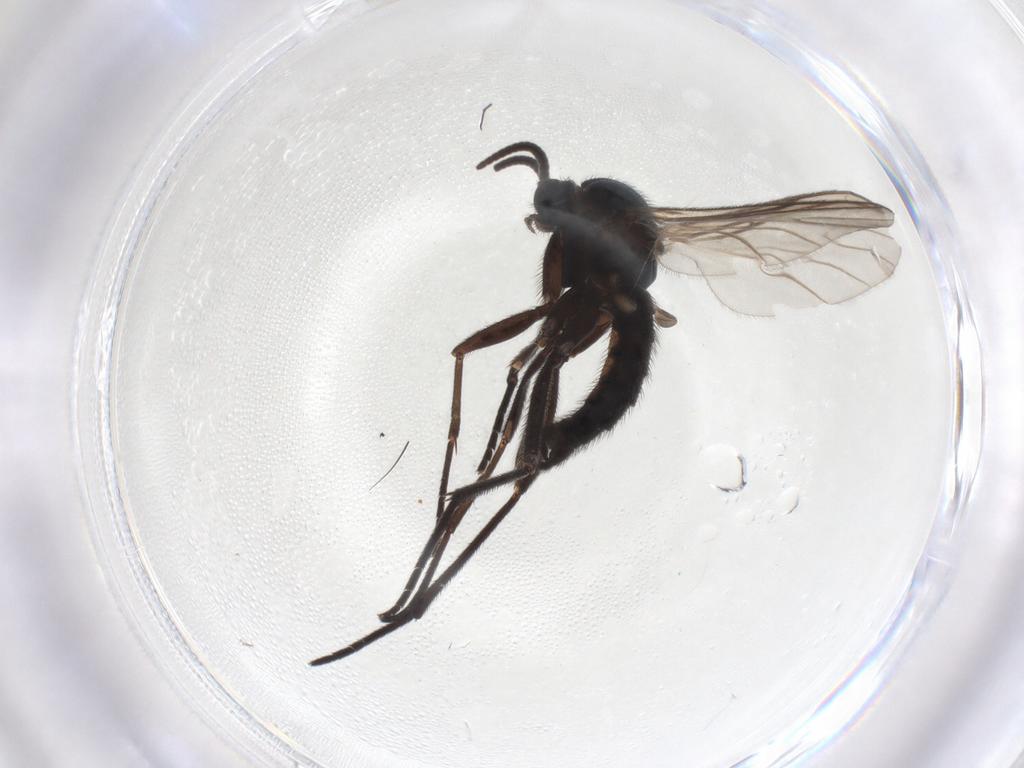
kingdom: Animalia
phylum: Arthropoda
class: Insecta
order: Diptera
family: Sciaridae
